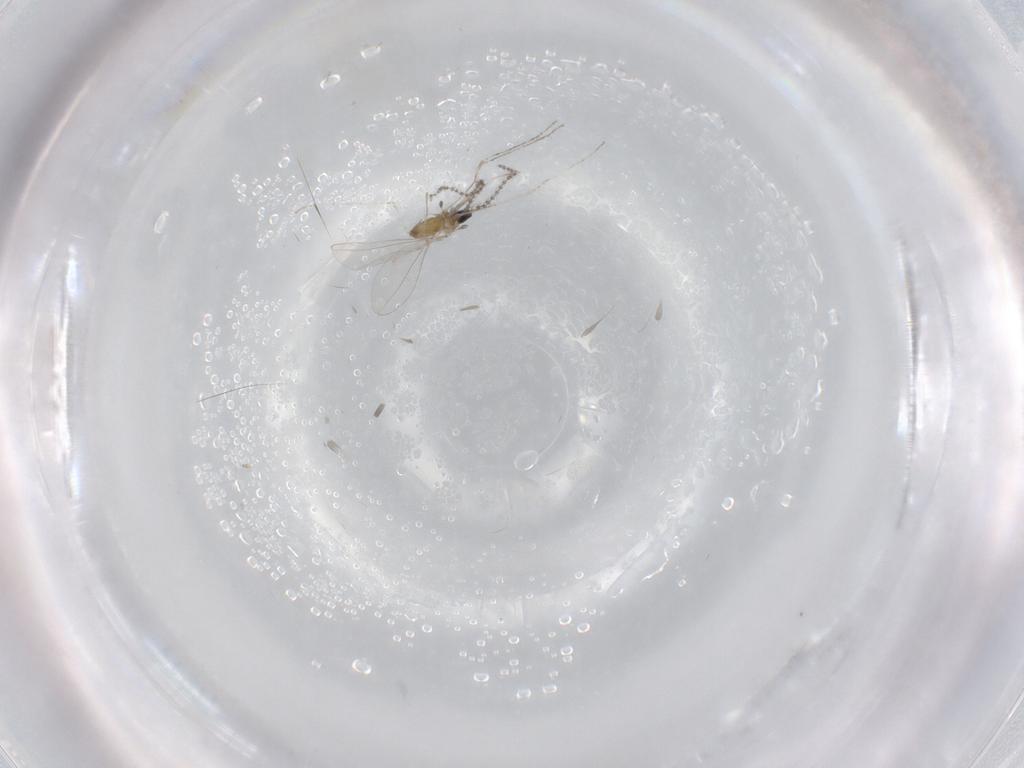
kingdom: Animalia
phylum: Arthropoda
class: Insecta
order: Diptera
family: Cecidomyiidae
